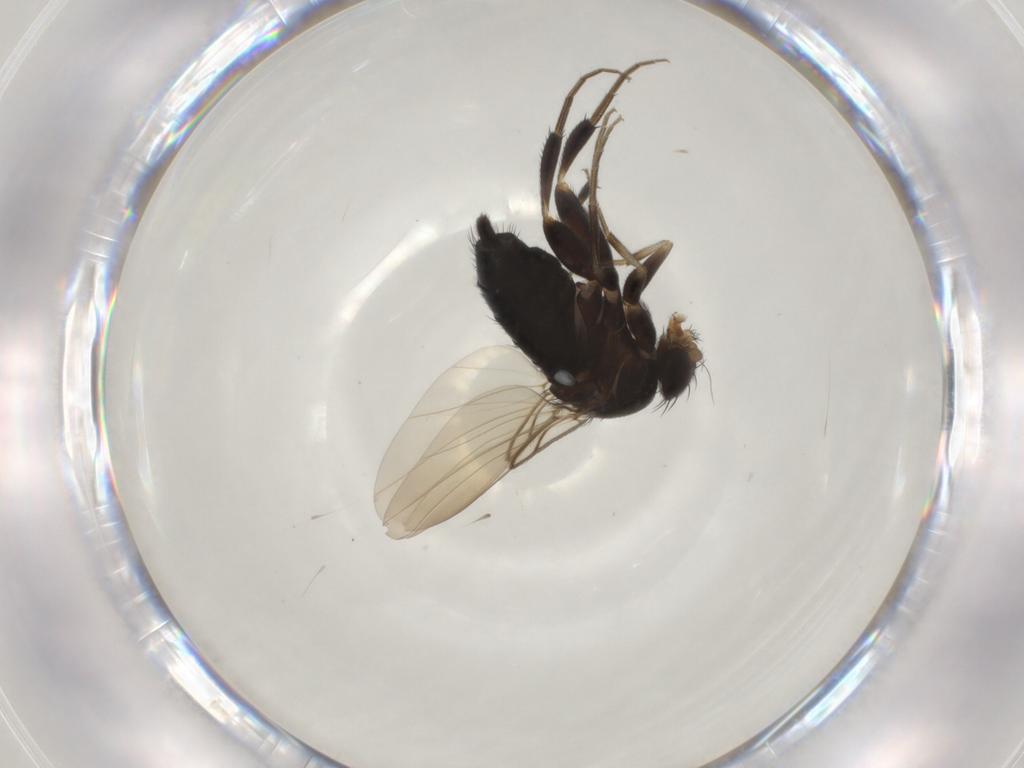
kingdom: Animalia
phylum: Arthropoda
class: Insecta
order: Diptera
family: Phoridae
